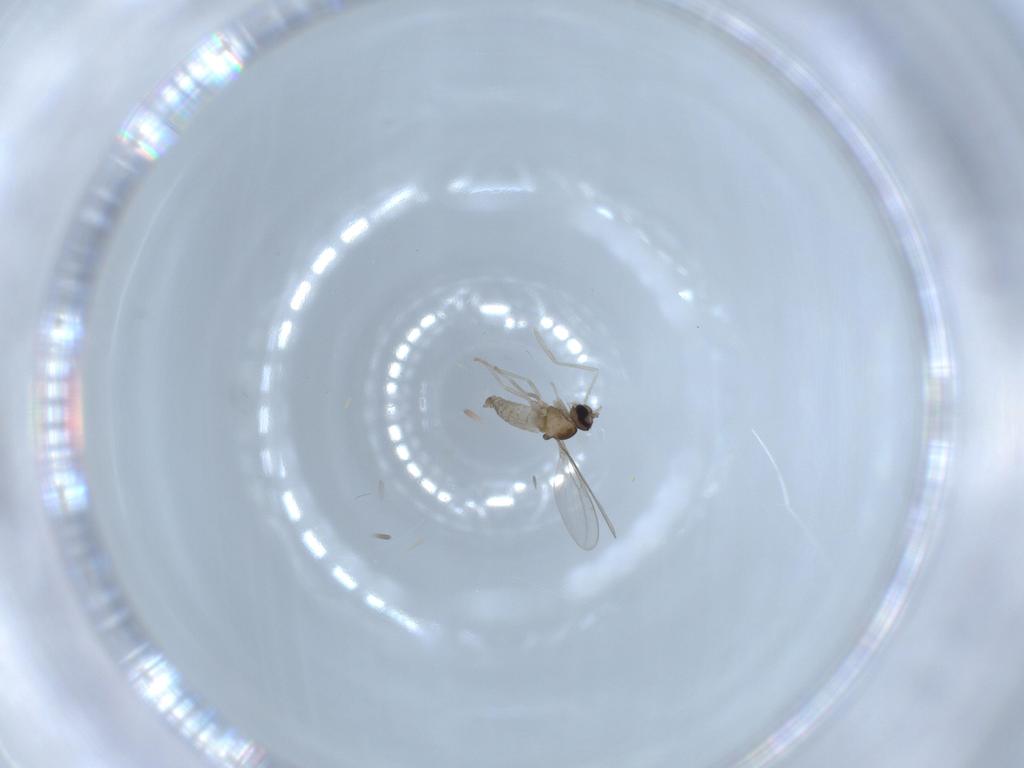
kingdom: Animalia
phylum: Arthropoda
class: Insecta
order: Diptera
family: Cecidomyiidae
